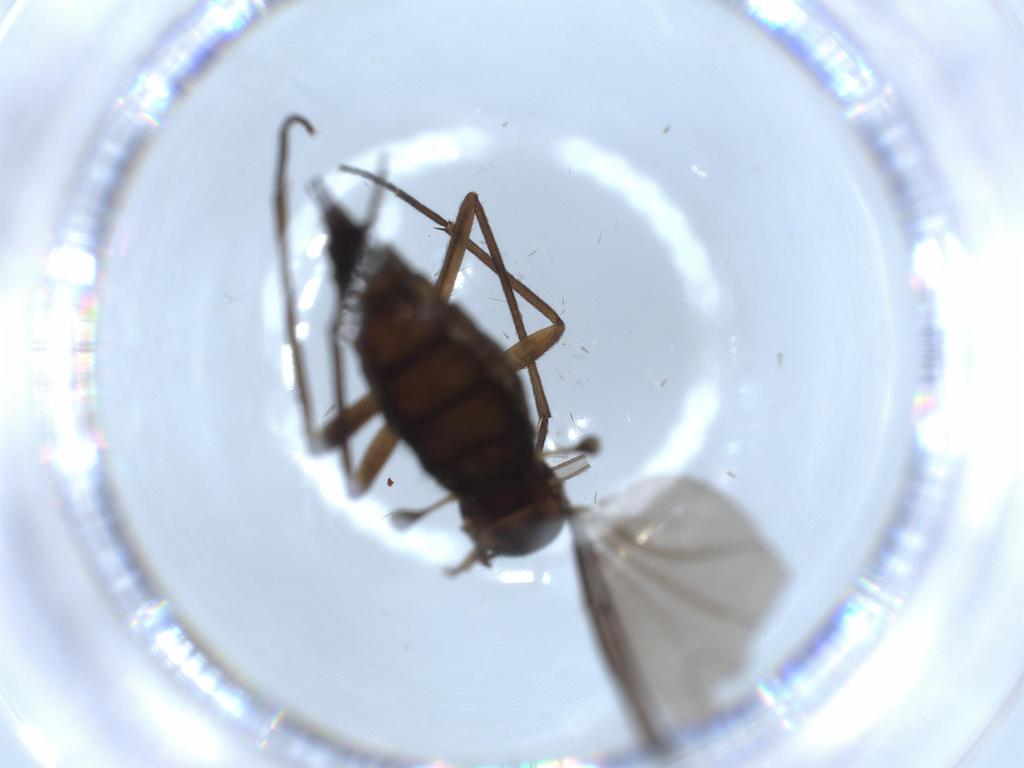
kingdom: Animalia
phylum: Arthropoda
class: Insecta
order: Diptera
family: Sciaridae
